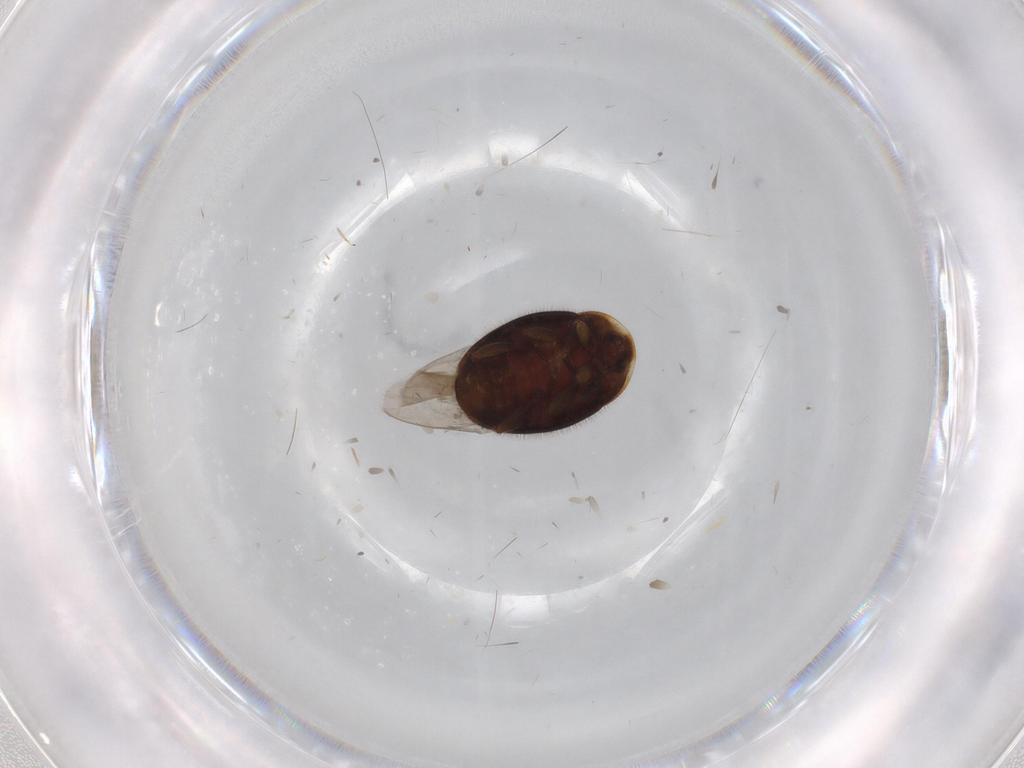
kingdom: Animalia
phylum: Arthropoda
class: Insecta
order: Coleoptera
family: Corylophidae
